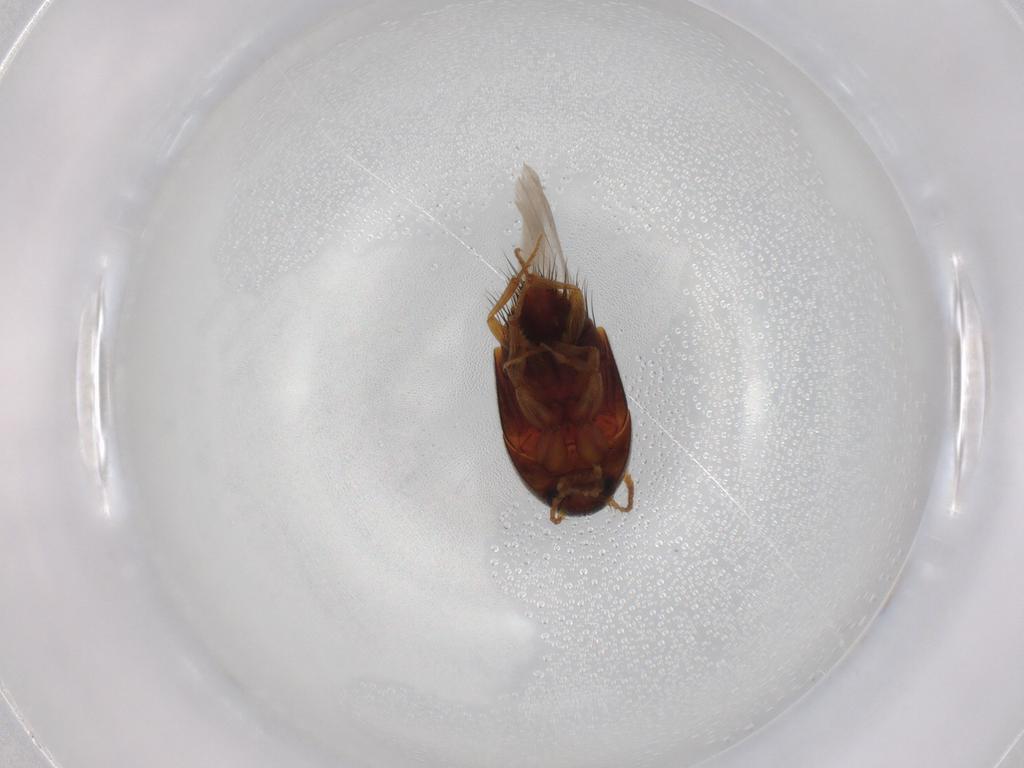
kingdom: Animalia
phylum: Arthropoda
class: Insecta
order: Coleoptera
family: Staphylinidae
